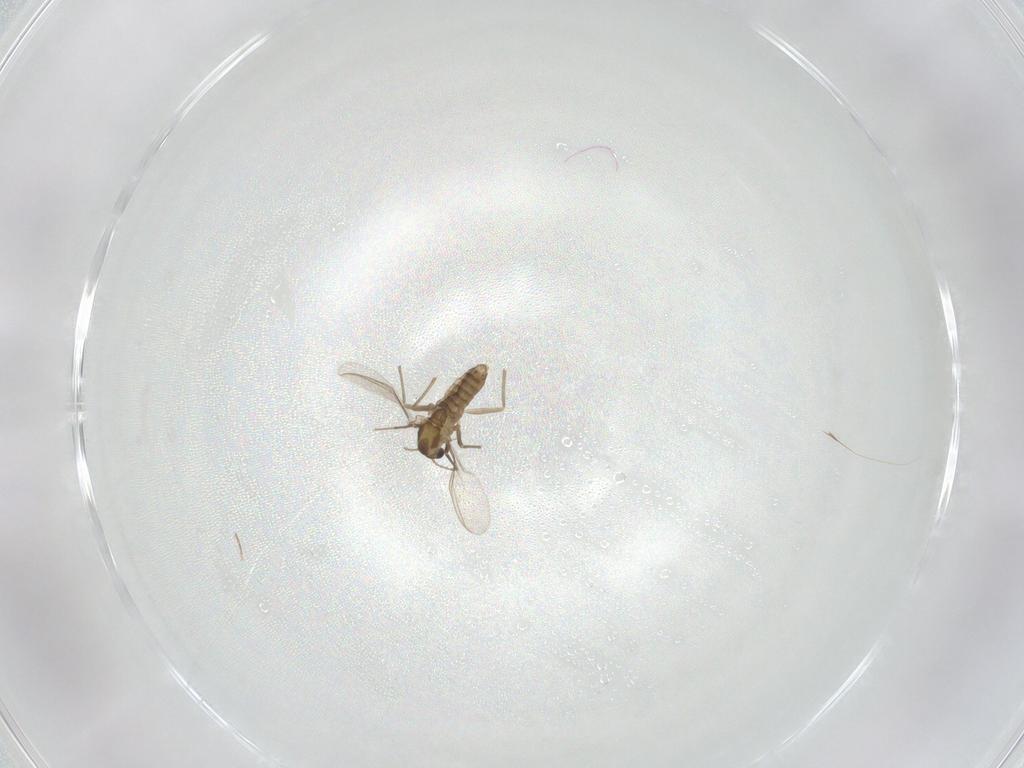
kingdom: Animalia
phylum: Arthropoda
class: Insecta
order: Diptera
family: Chironomidae
